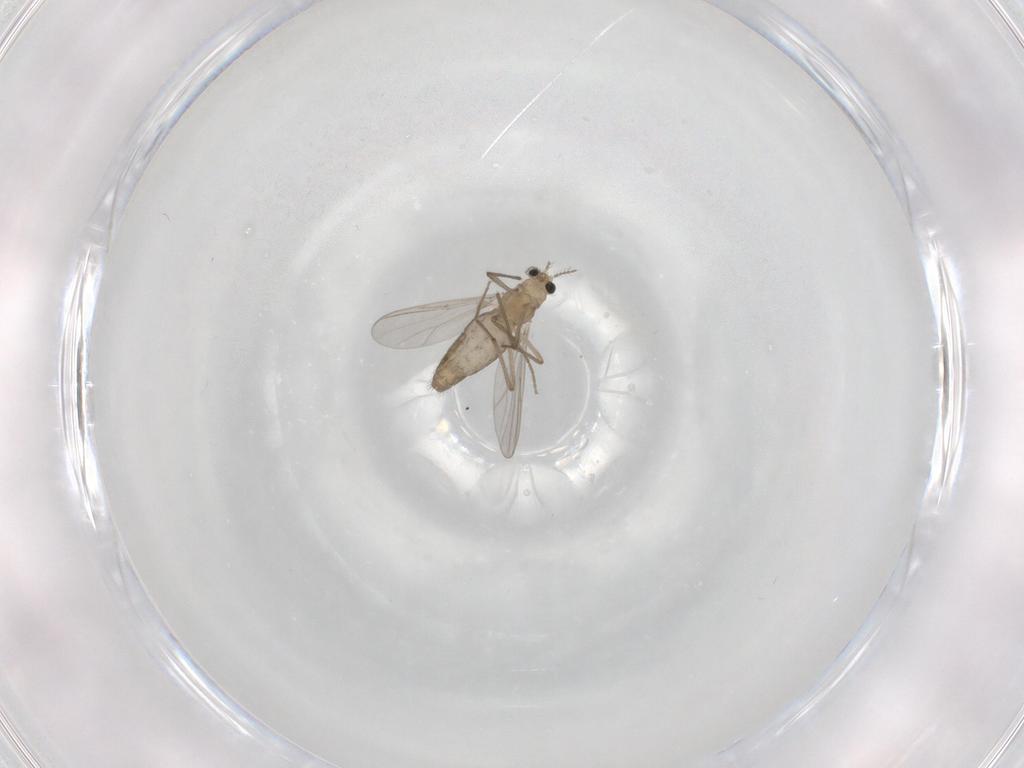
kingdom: Animalia
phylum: Arthropoda
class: Insecta
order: Diptera
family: Chironomidae
